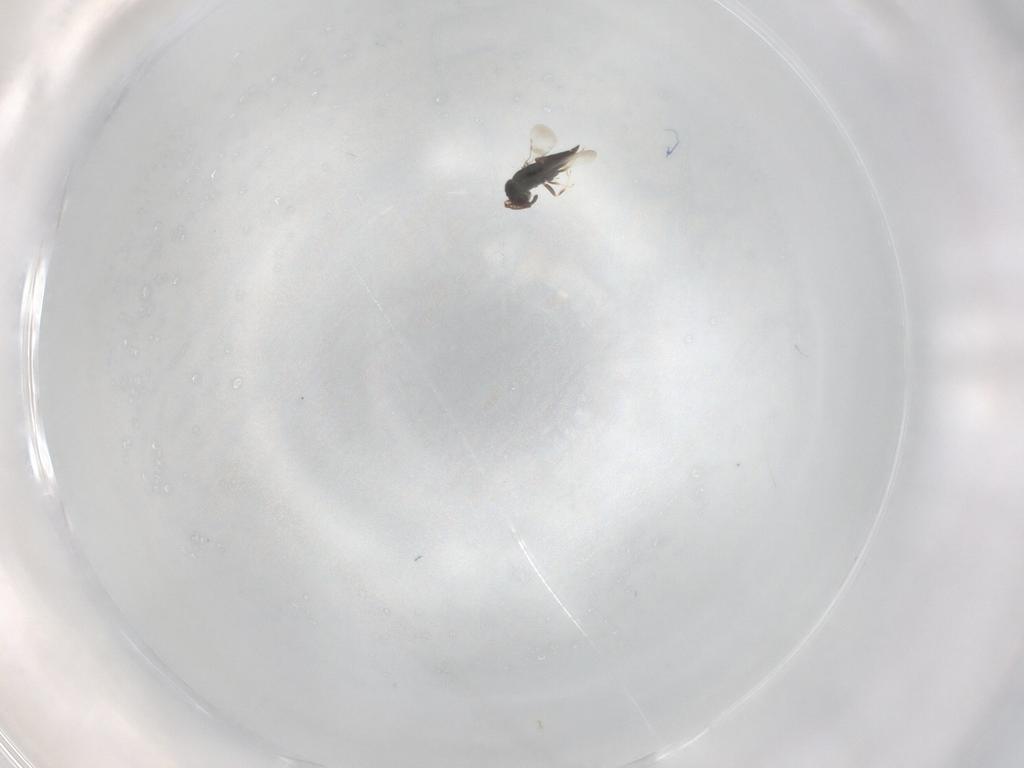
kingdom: Animalia
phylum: Arthropoda
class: Insecta
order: Hymenoptera
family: Ceraphronidae
